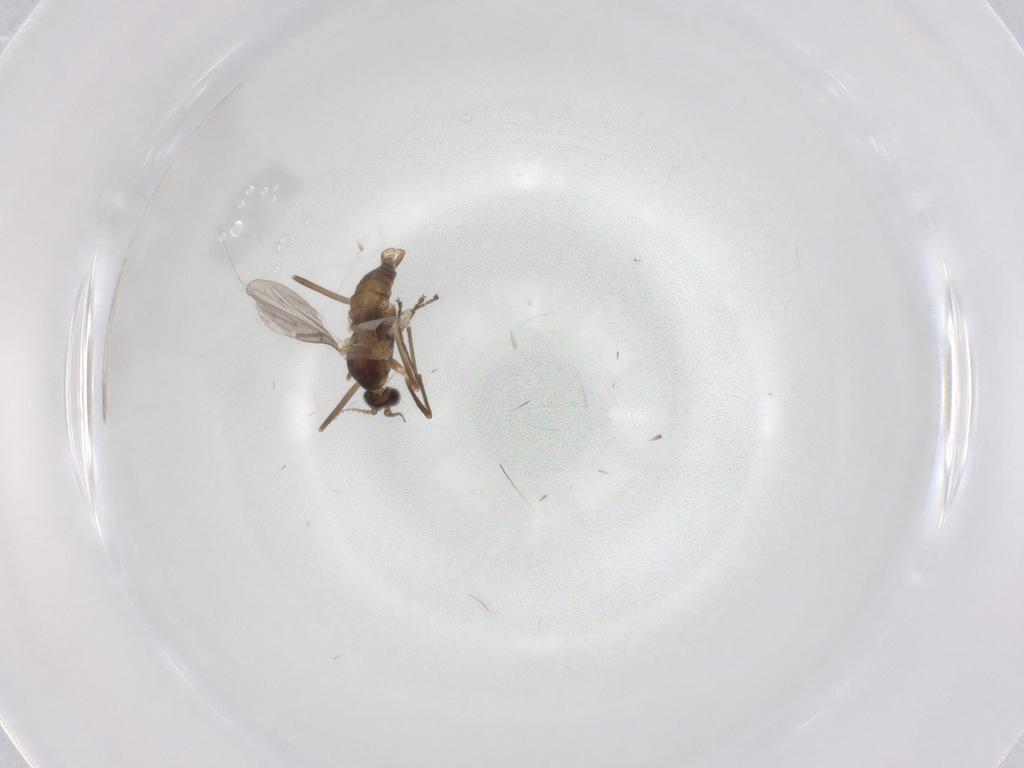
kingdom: Animalia
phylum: Arthropoda
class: Insecta
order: Diptera
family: Cecidomyiidae
